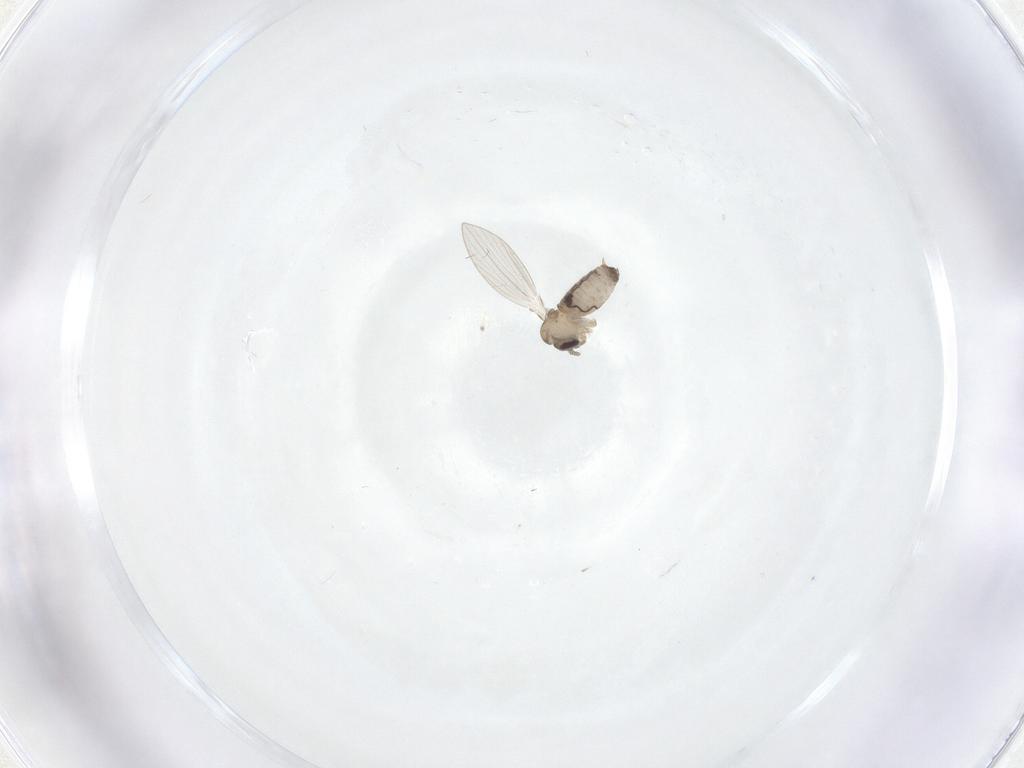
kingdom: Animalia
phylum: Arthropoda
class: Insecta
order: Diptera
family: Psychodidae
